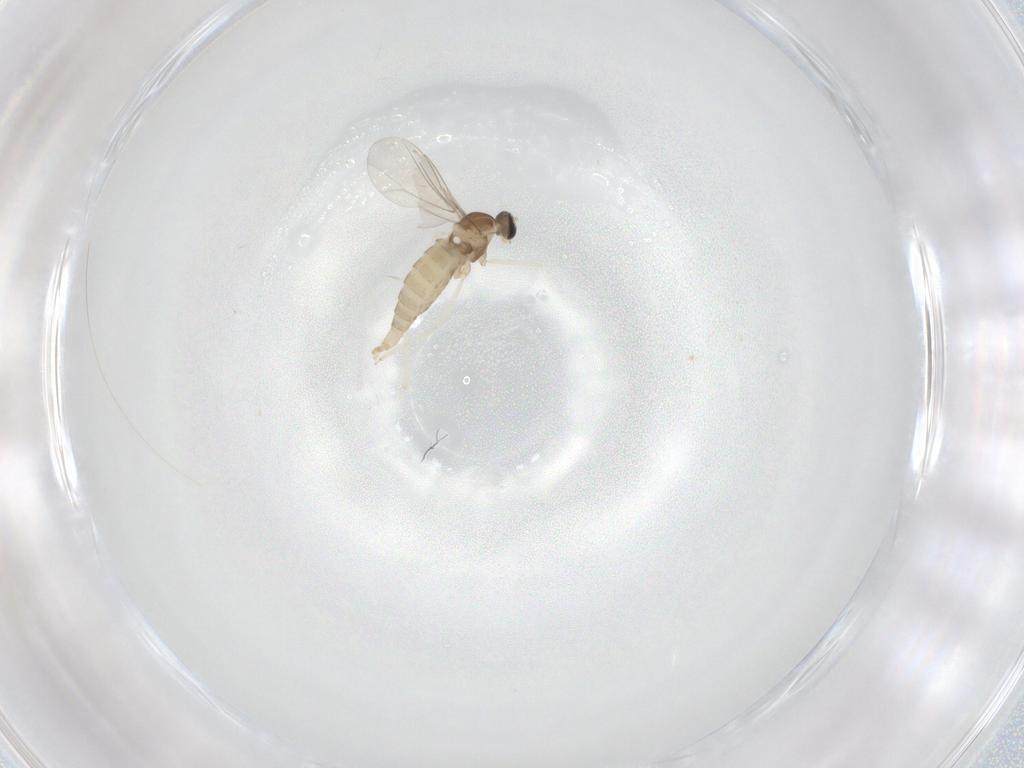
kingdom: Animalia
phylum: Arthropoda
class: Insecta
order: Diptera
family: Cecidomyiidae
